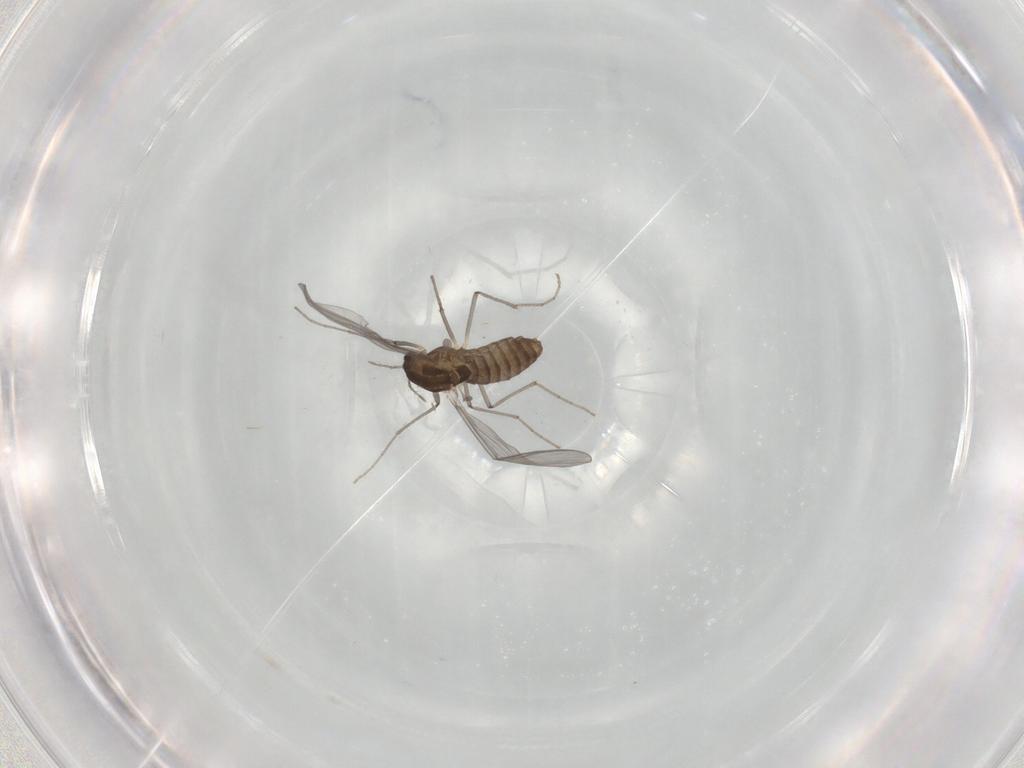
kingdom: Animalia
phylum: Arthropoda
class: Insecta
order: Diptera
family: Chironomidae
